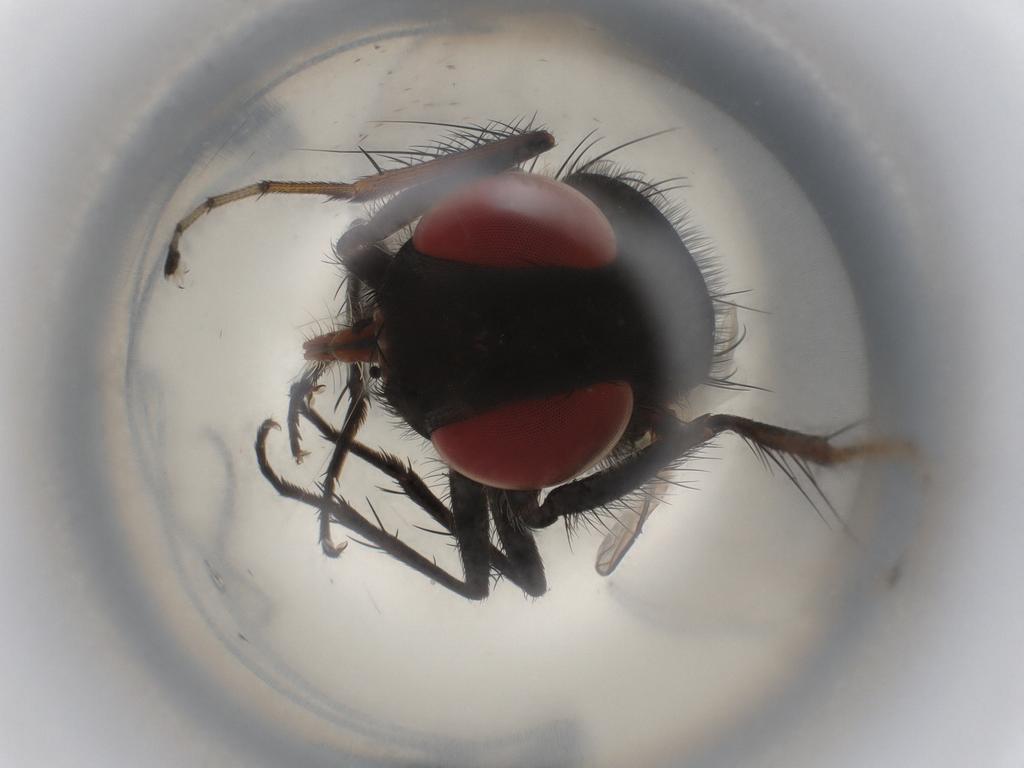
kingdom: Animalia
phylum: Arthropoda
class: Insecta
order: Diptera
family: Sarcophagidae
